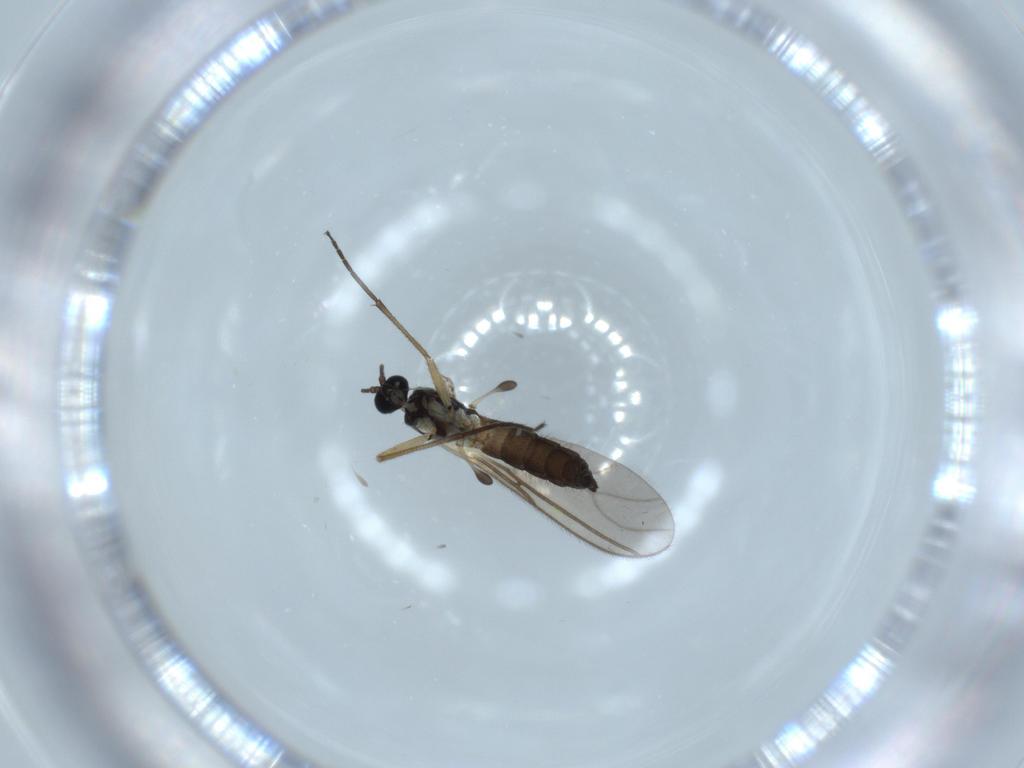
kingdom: Animalia
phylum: Arthropoda
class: Insecta
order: Diptera
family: Sciaridae
